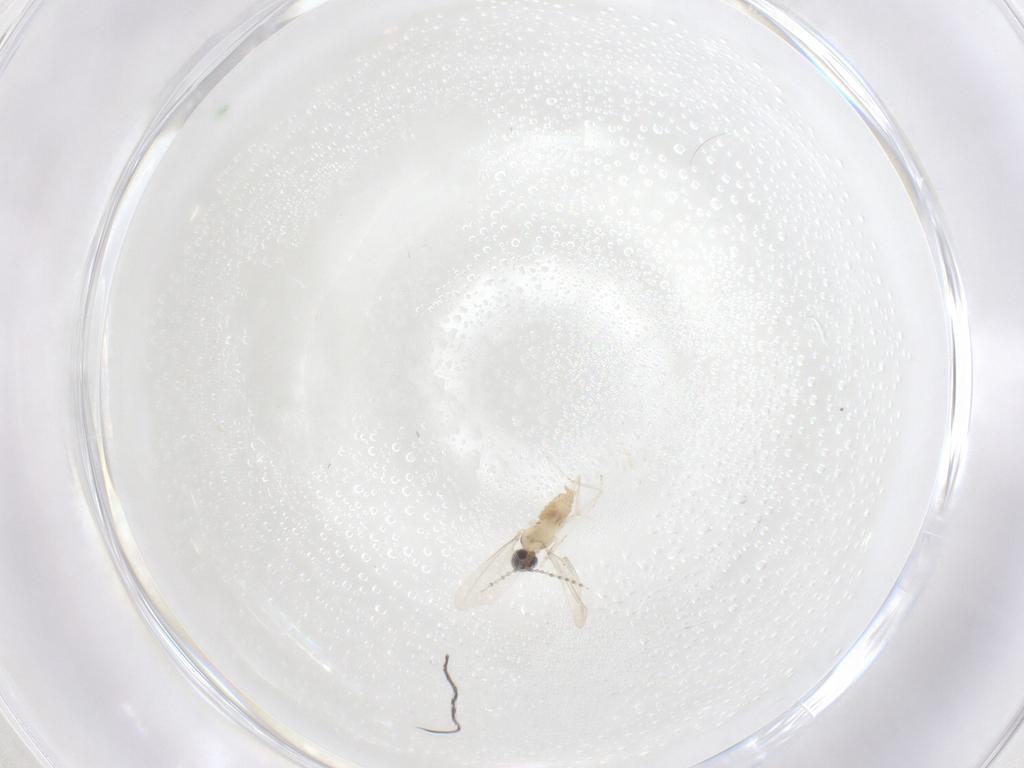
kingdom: Animalia
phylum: Arthropoda
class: Insecta
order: Diptera
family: Cecidomyiidae
